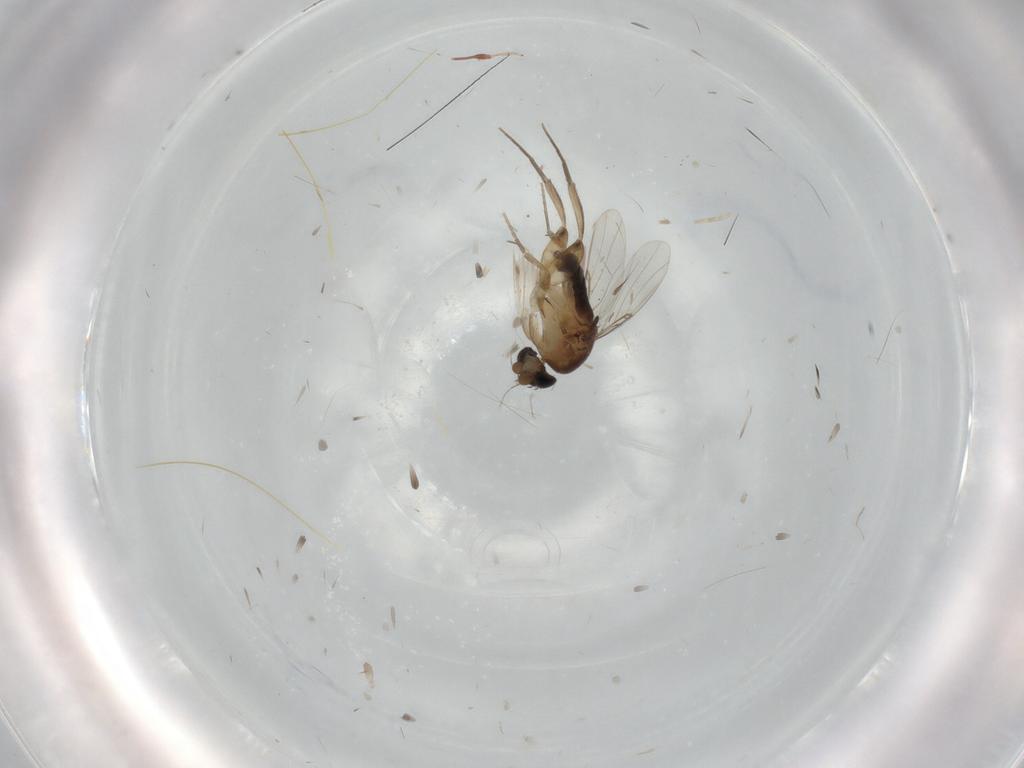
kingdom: Animalia
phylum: Arthropoda
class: Insecta
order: Diptera
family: Phoridae
